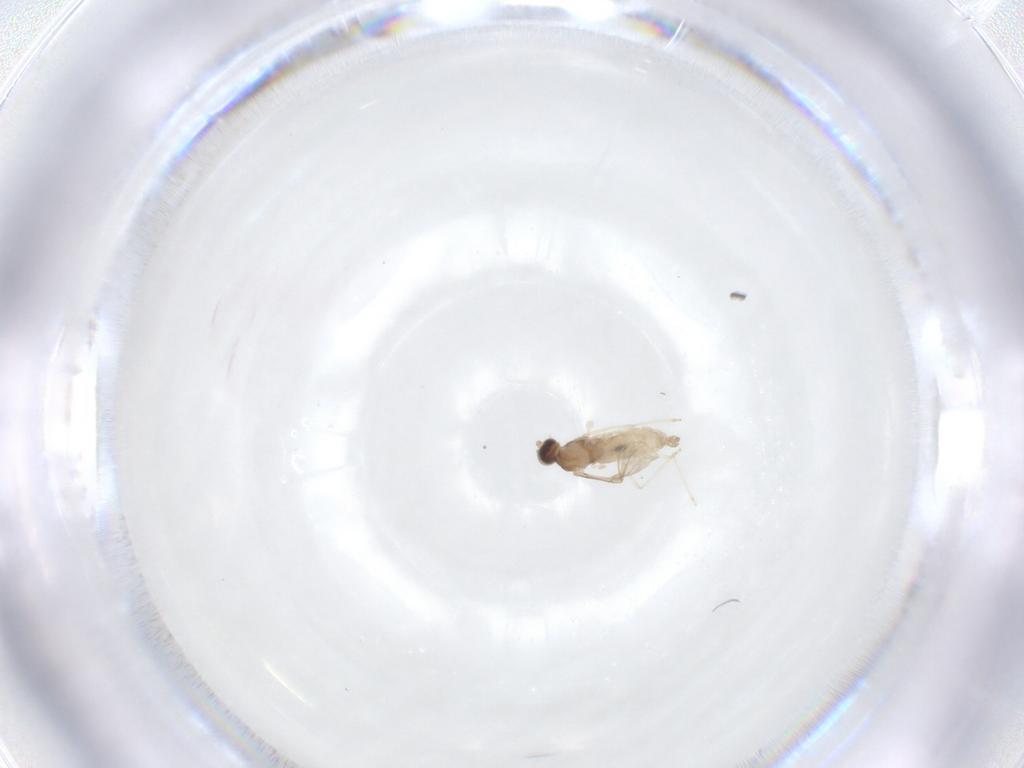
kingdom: Animalia
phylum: Arthropoda
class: Insecta
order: Diptera
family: Cecidomyiidae
